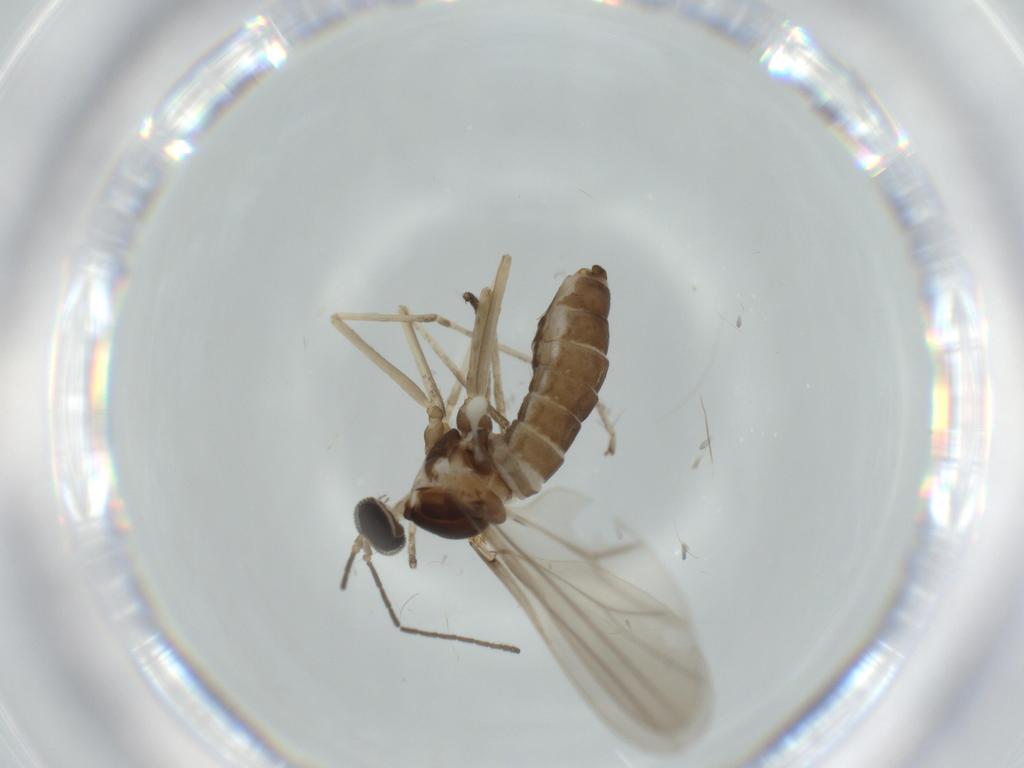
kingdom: Animalia
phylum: Arthropoda
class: Insecta
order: Diptera
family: Cecidomyiidae
